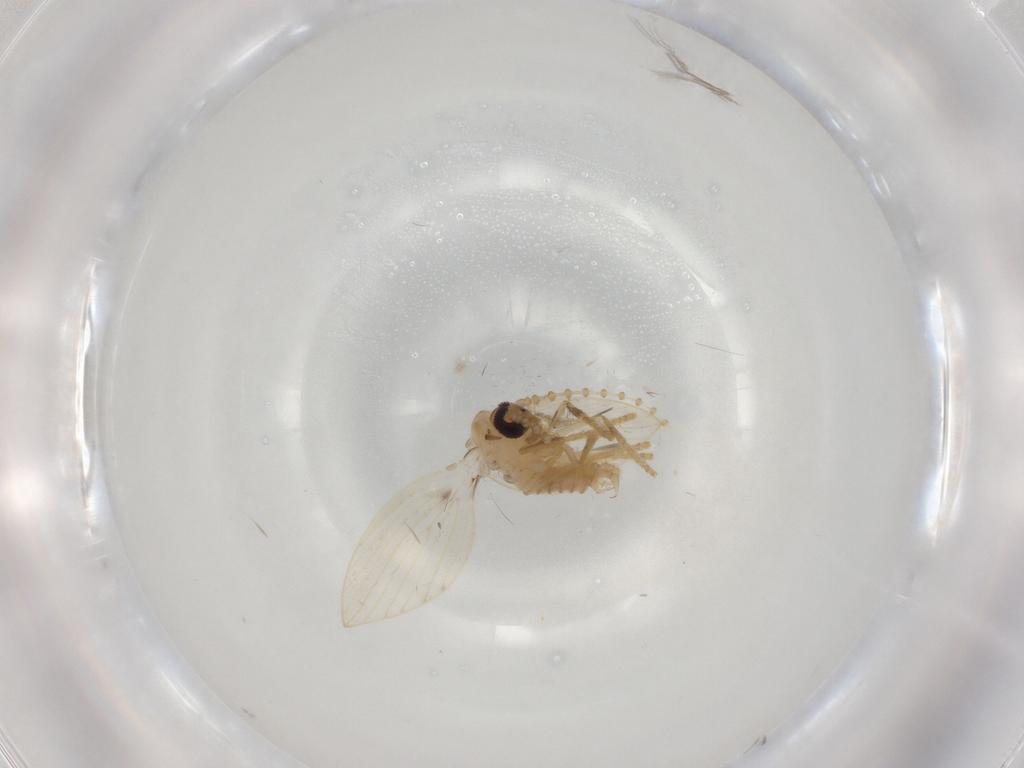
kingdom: Animalia
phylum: Arthropoda
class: Insecta
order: Diptera
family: Psychodidae
